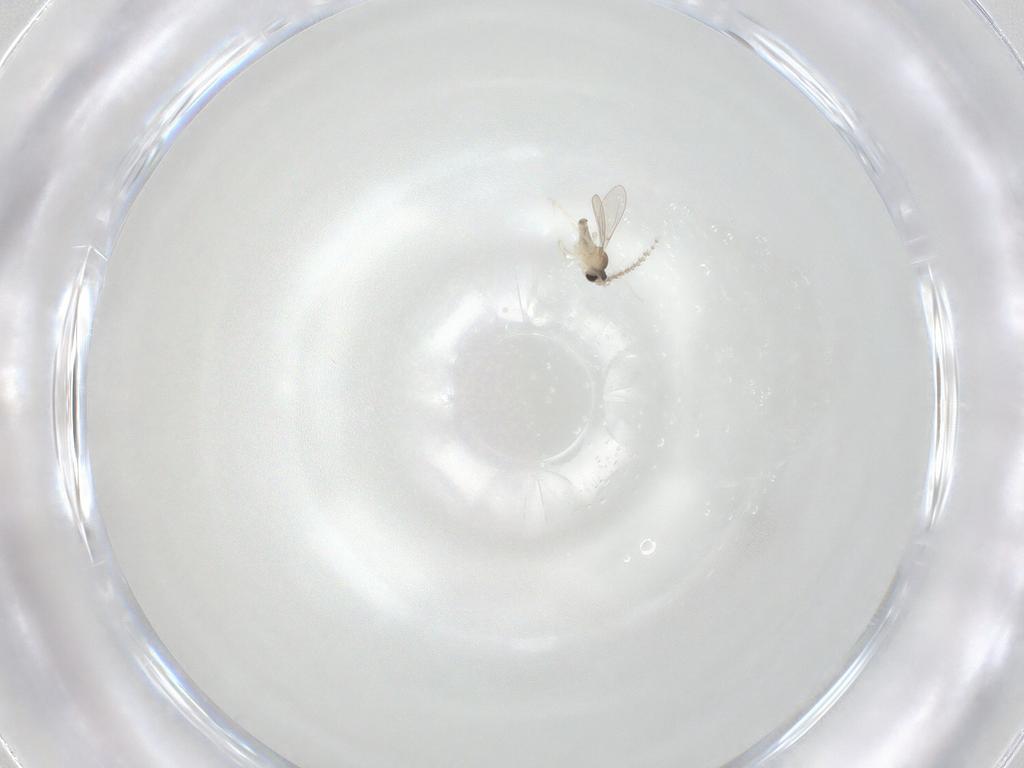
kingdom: Animalia
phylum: Arthropoda
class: Insecta
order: Diptera
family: Cecidomyiidae
